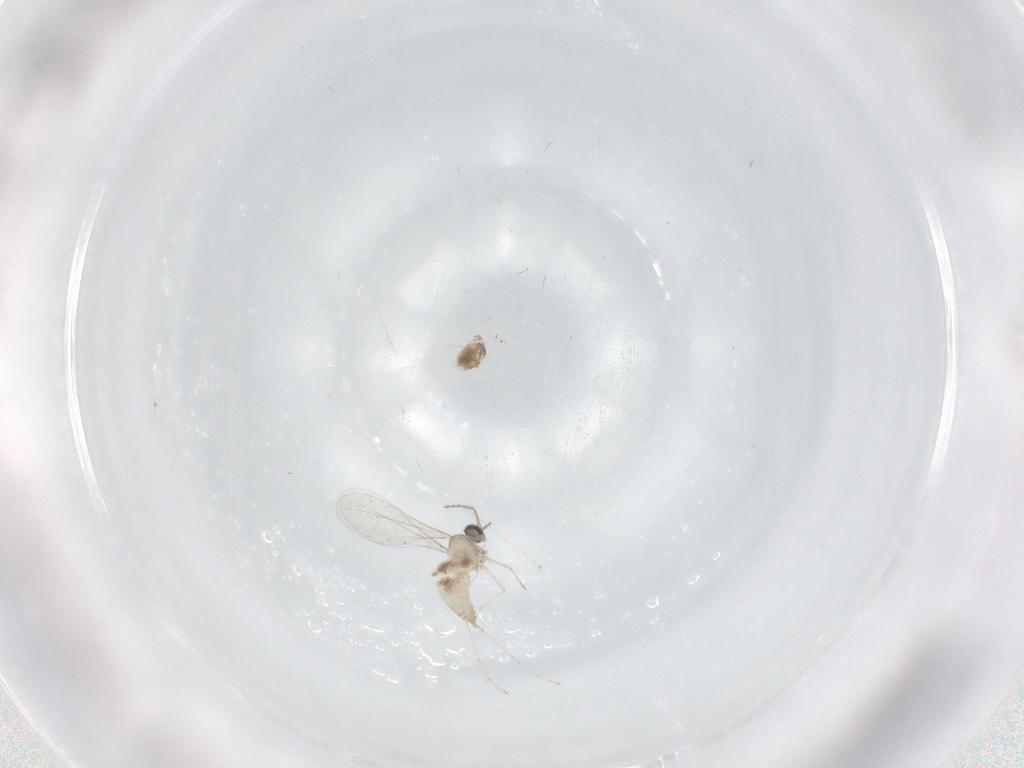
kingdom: Animalia
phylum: Arthropoda
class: Insecta
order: Diptera
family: Cecidomyiidae
